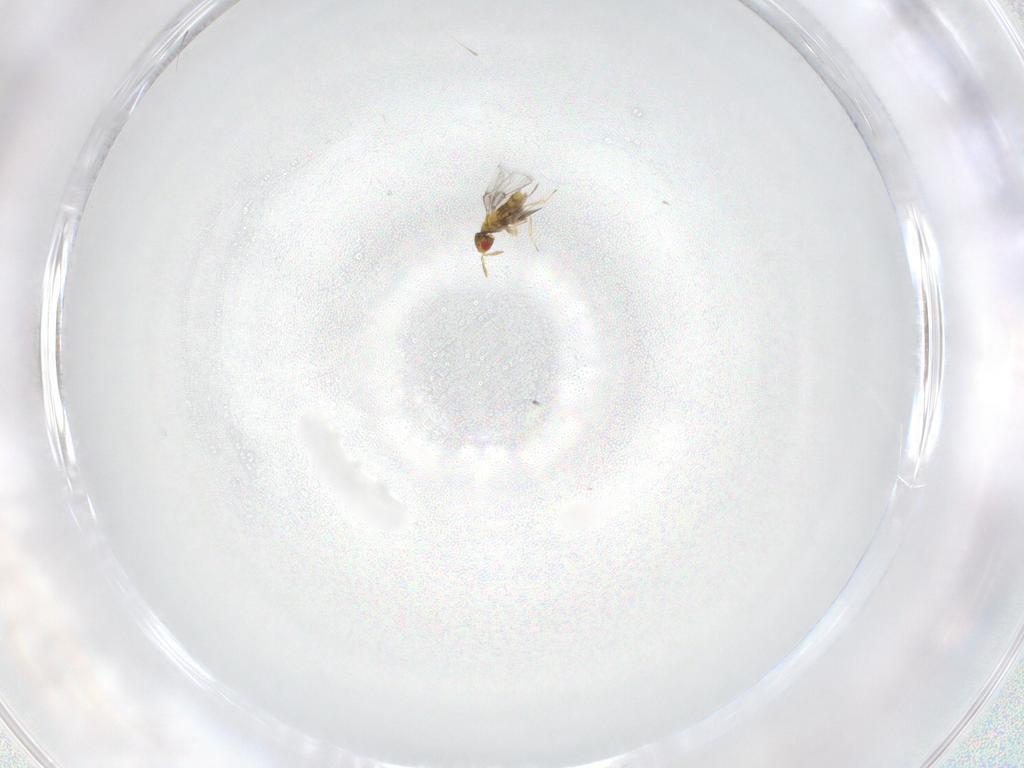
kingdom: Animalia
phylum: Arthropoda
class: Insecta
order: Hymenoptera
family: Trichogrammatidae
